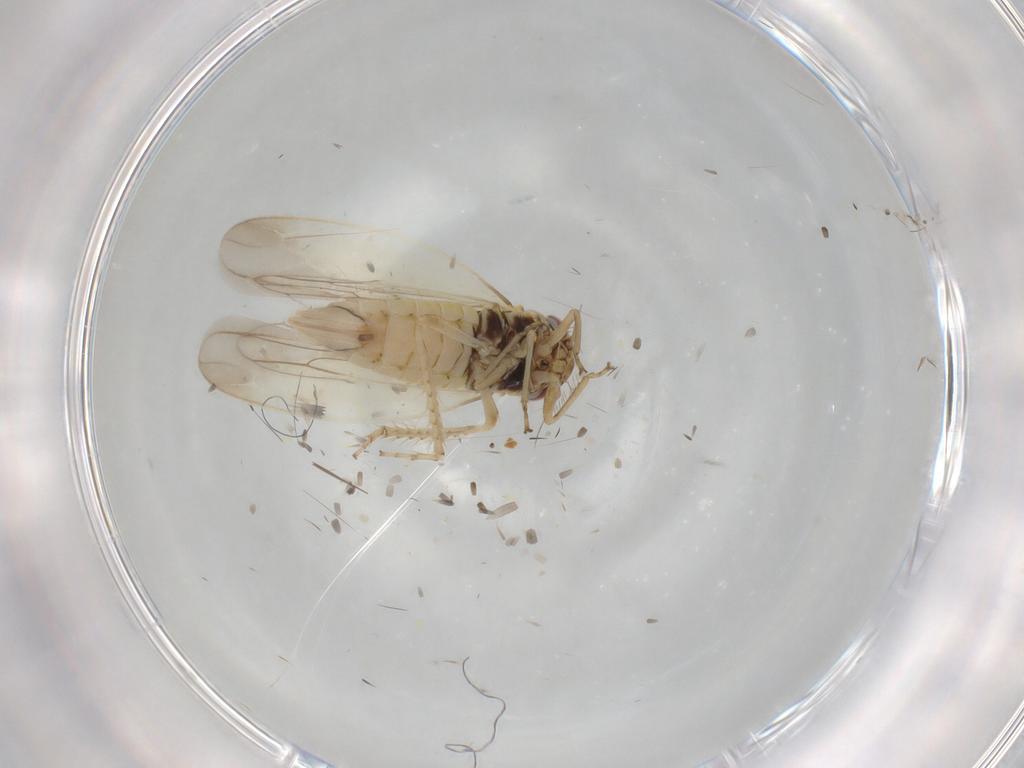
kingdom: Animalia
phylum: Arthropoda
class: Insecta
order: Hemiptera
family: Cicadellidae
